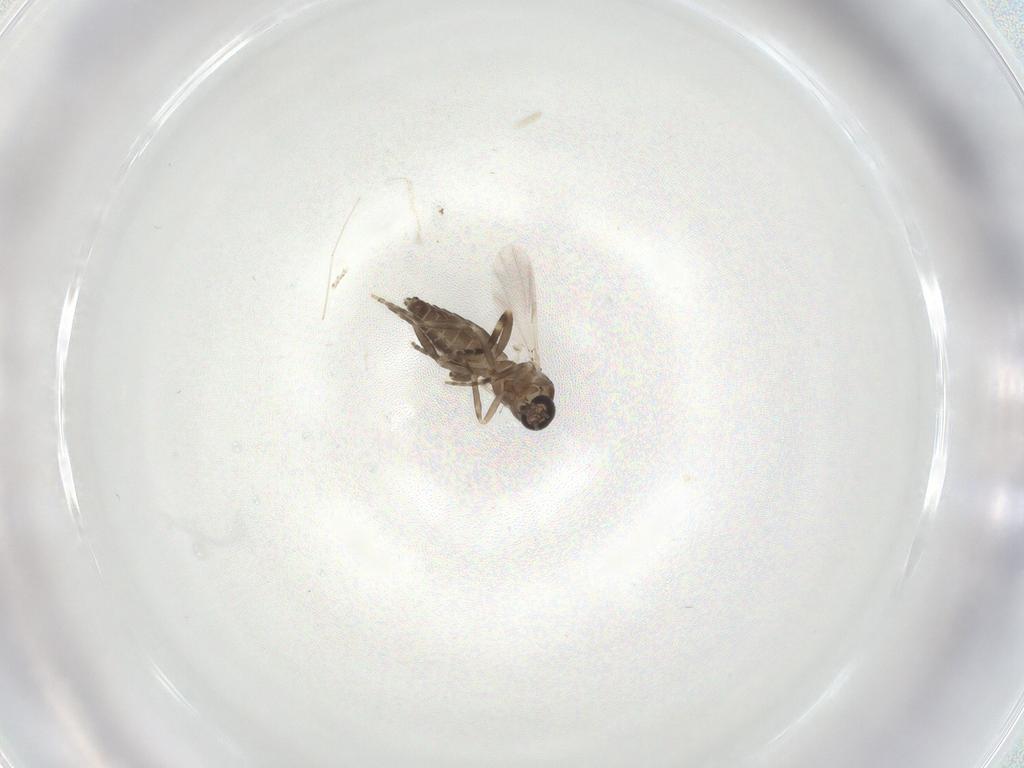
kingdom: Animalia
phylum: Arthropoda
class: Insecta
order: Diptera
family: Ceratopogonidae
